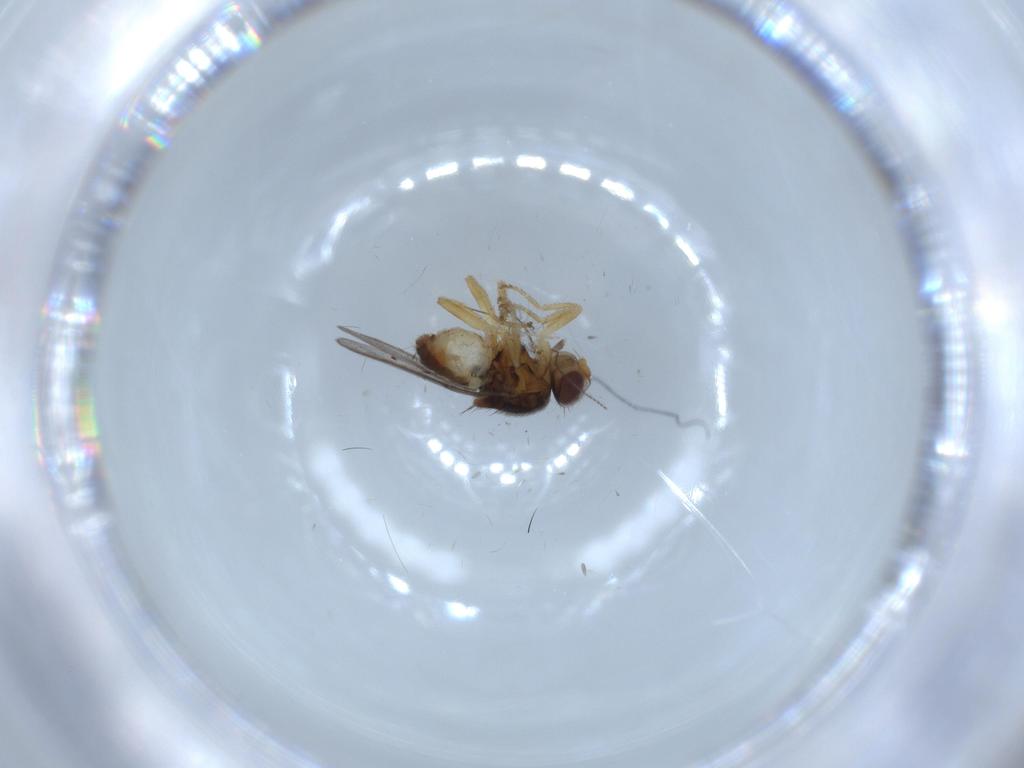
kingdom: Animalia
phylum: Arthropoda
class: Insecta
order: Diptera
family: Chloropidae
